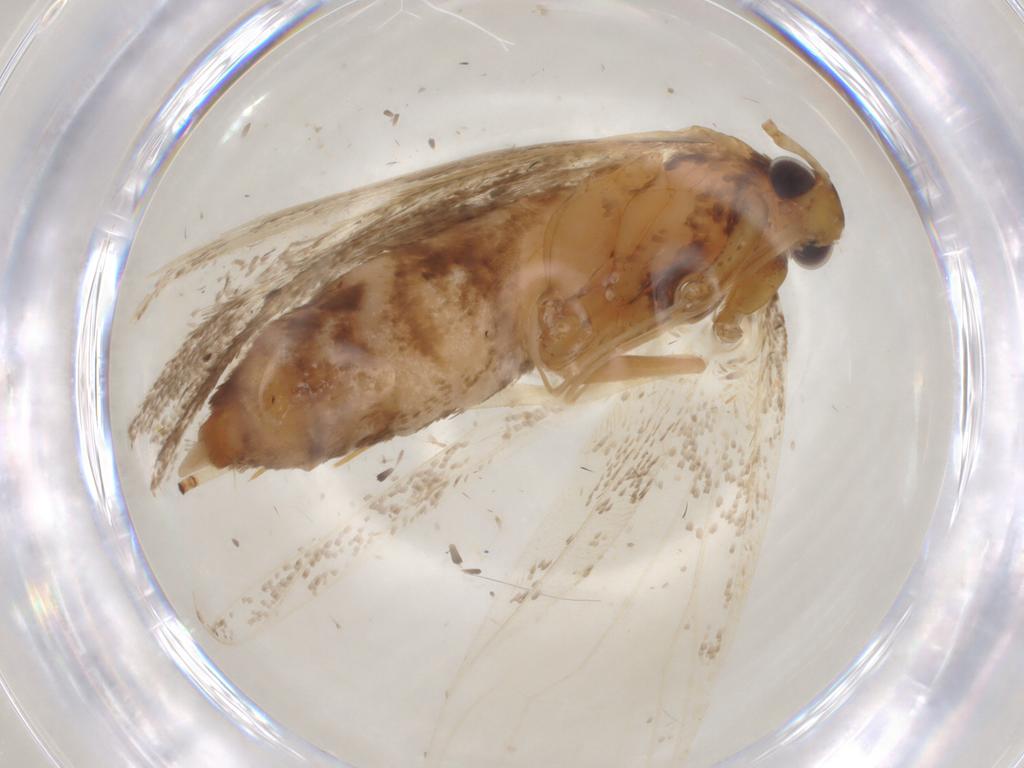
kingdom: Animalia
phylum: Arthropoda
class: Insecta
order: Lepidoptera
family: Lecithoceridae
